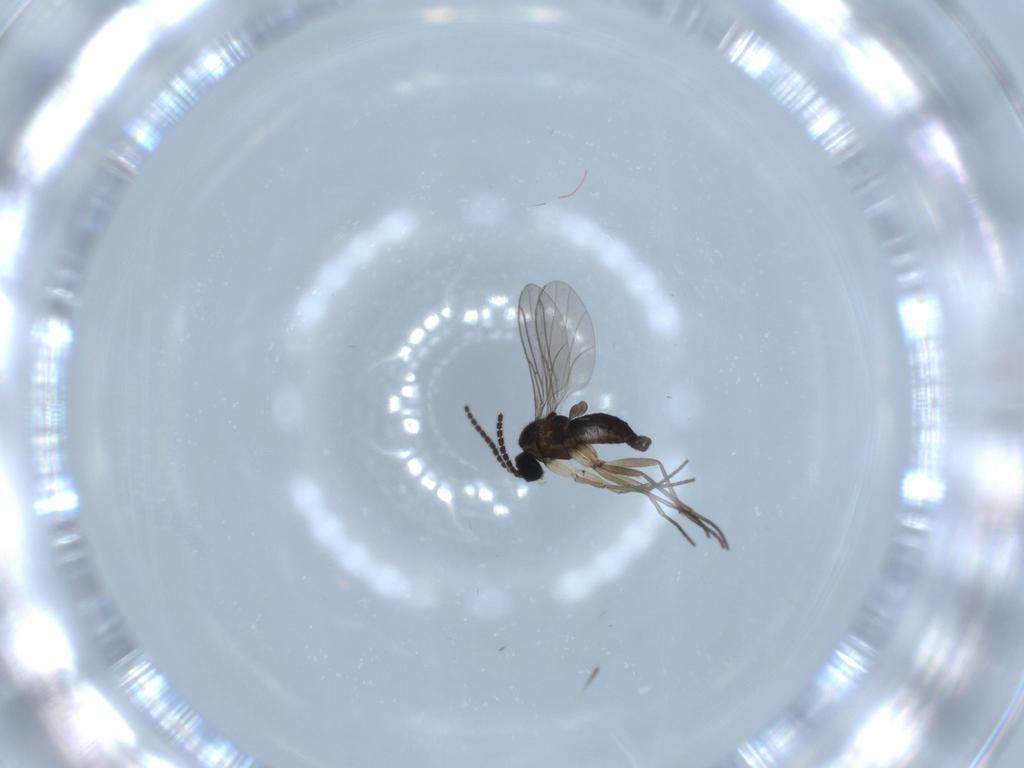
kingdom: Animalia
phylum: Arthropoda
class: Insecta
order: Diptera
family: Sciaridae
